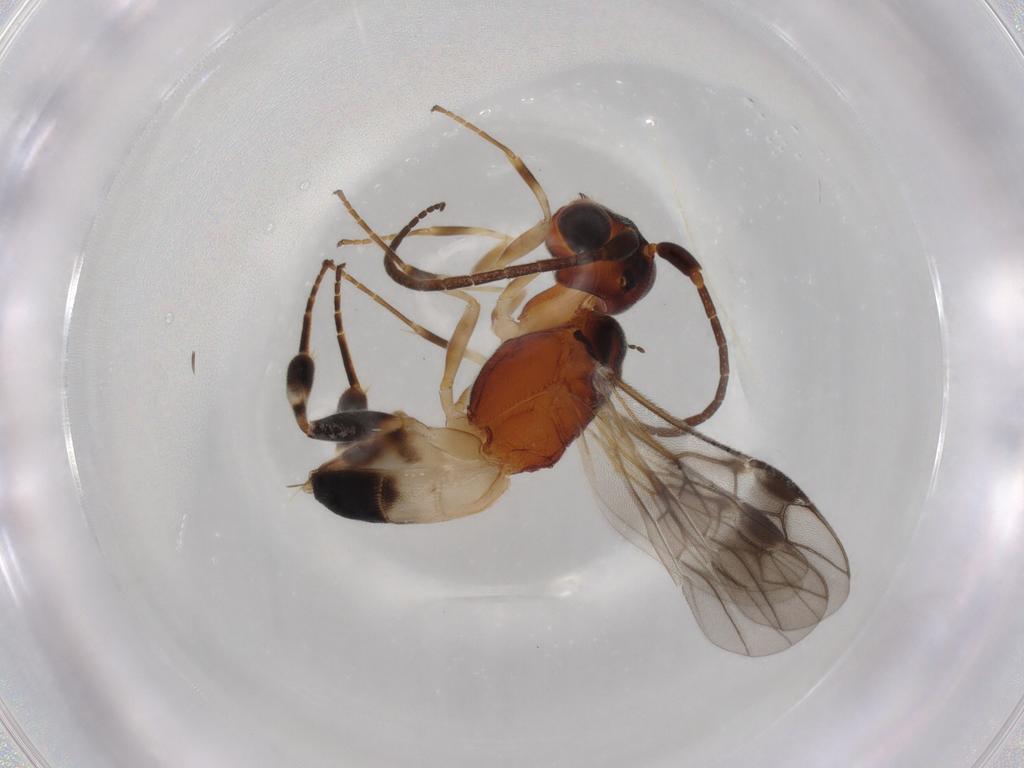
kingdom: Animalia
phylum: Arthropoda
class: Insecta
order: Hymenoptera
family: Braconidae
